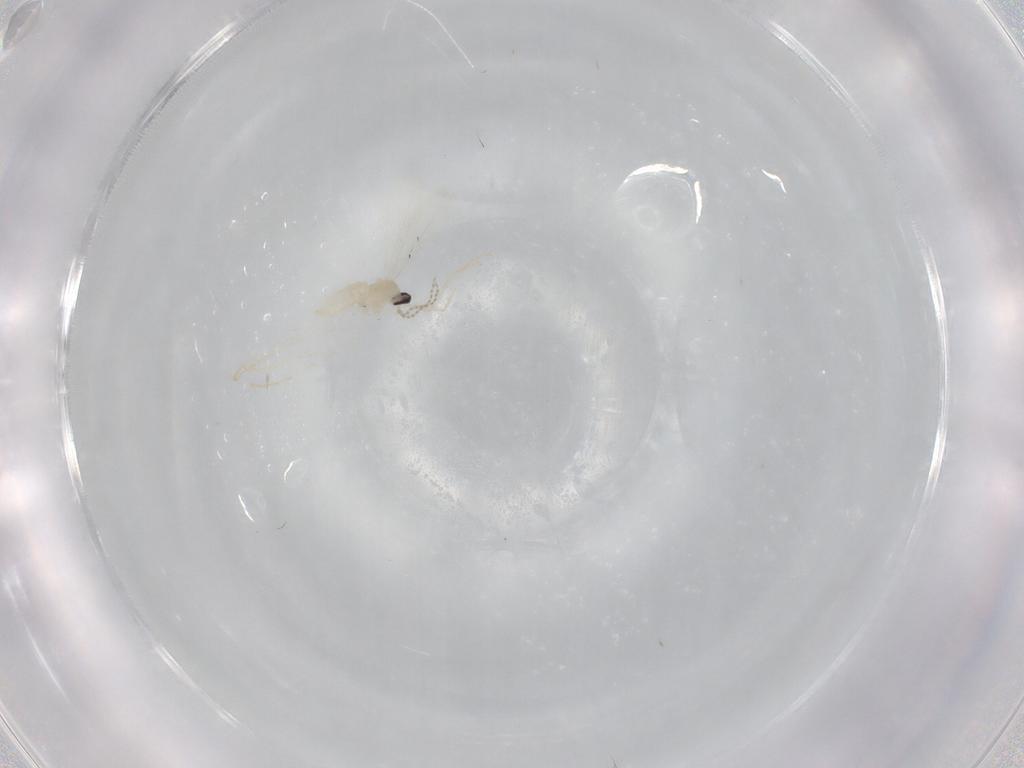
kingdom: Animalia
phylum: Arthropoda
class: Insecta
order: Diptera
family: Cecidomyiidae
